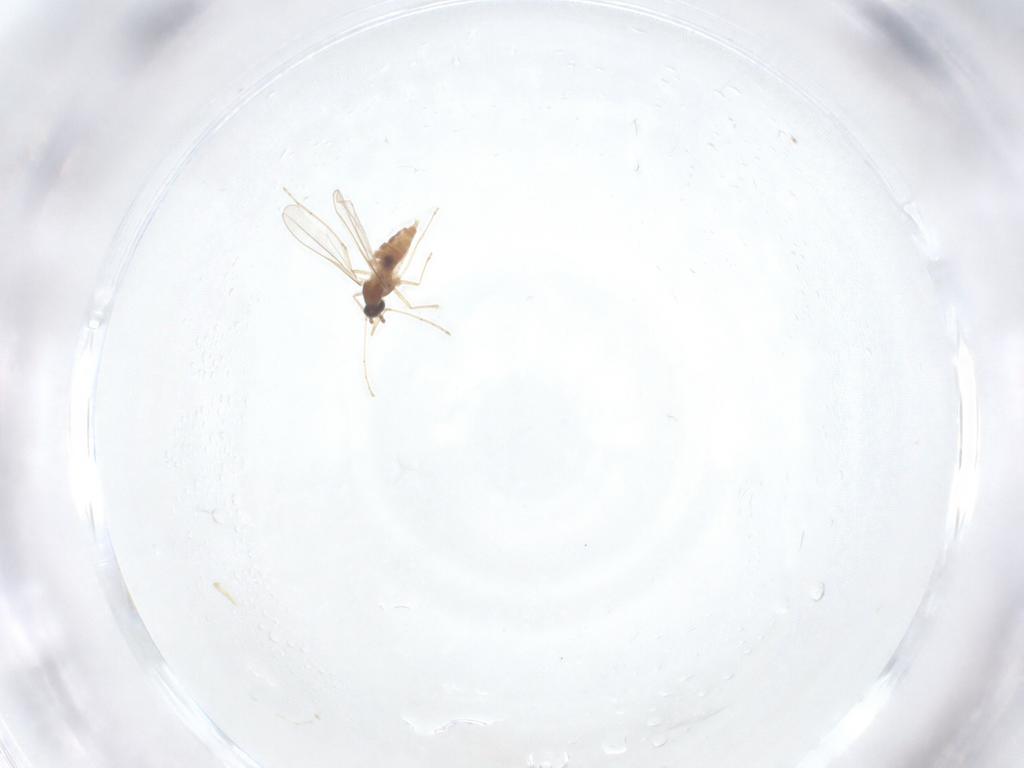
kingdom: Animalia
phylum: Arthropoda
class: Insecta
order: Diptera
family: Cecidomyiidae
